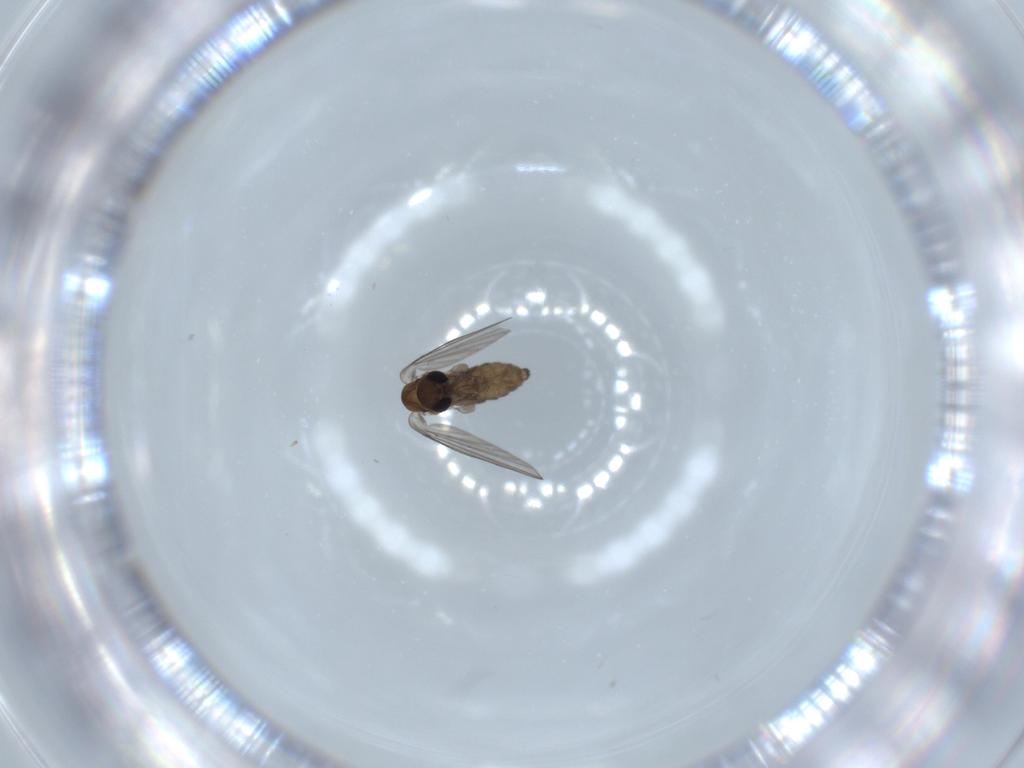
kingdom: Animalia
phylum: Arthropoda
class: Insecta
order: Diptera
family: Psychodidae
